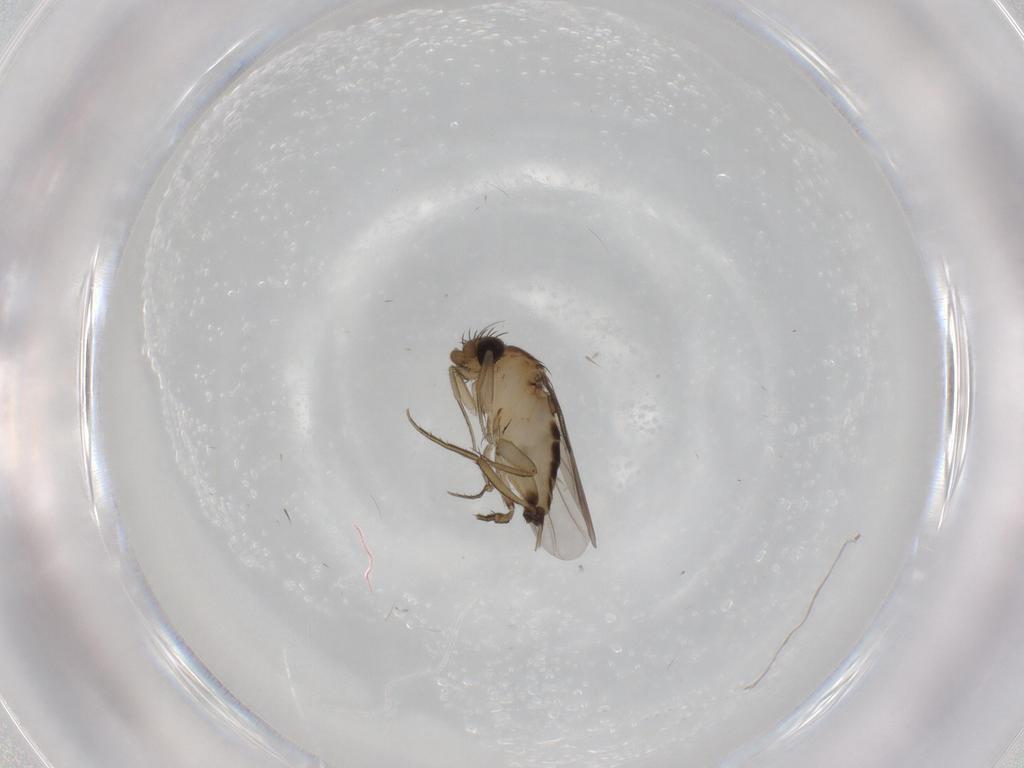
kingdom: Animalia
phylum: Arthropoda
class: Insecta
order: Diptera
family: Phoridae
